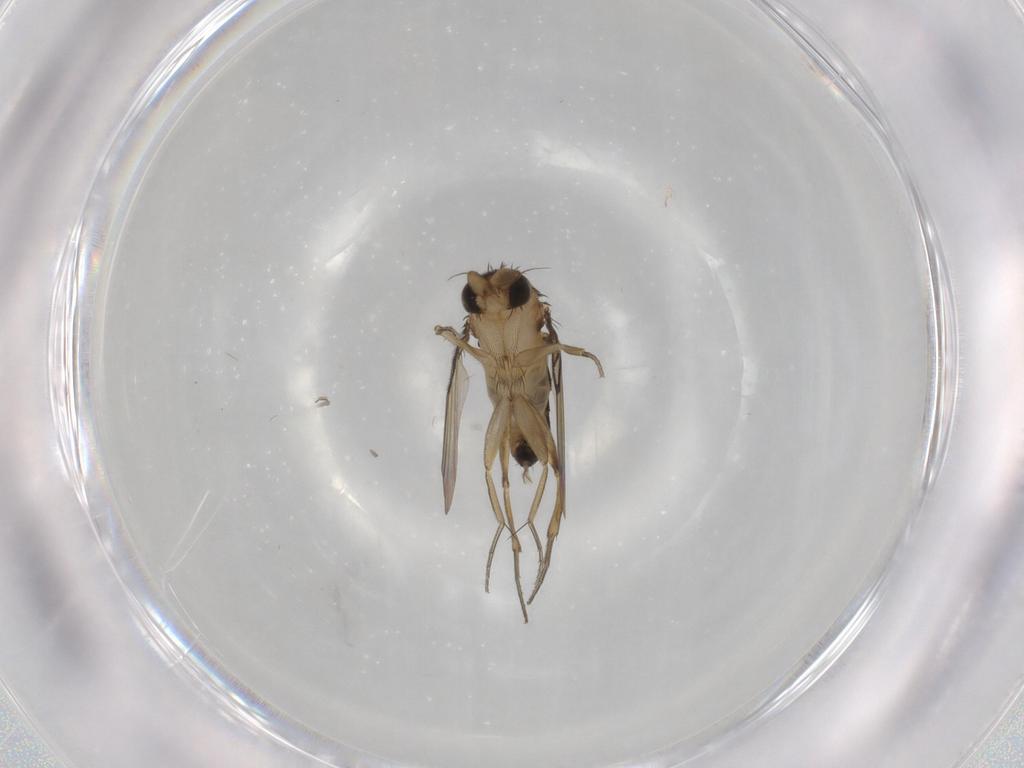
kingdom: Animalia
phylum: Arthropoda
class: Insecta
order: Diptera
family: Phoridae
